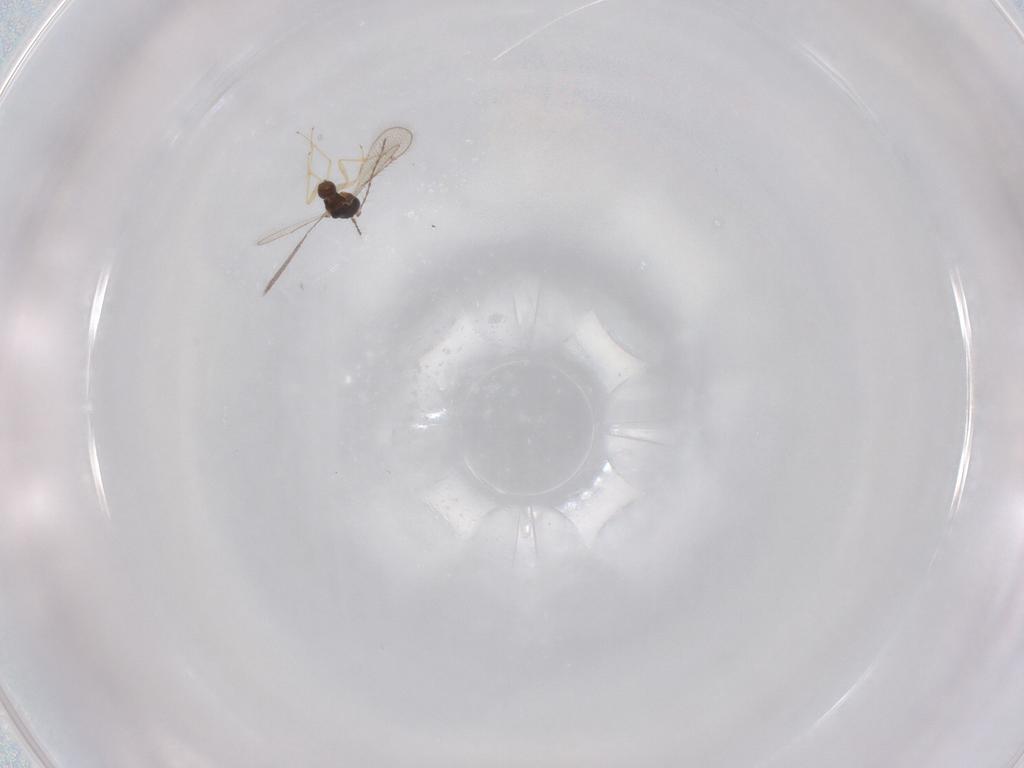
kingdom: Animalia
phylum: Arthropoda
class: Insecta
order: Hymenoptera
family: Diparidae
